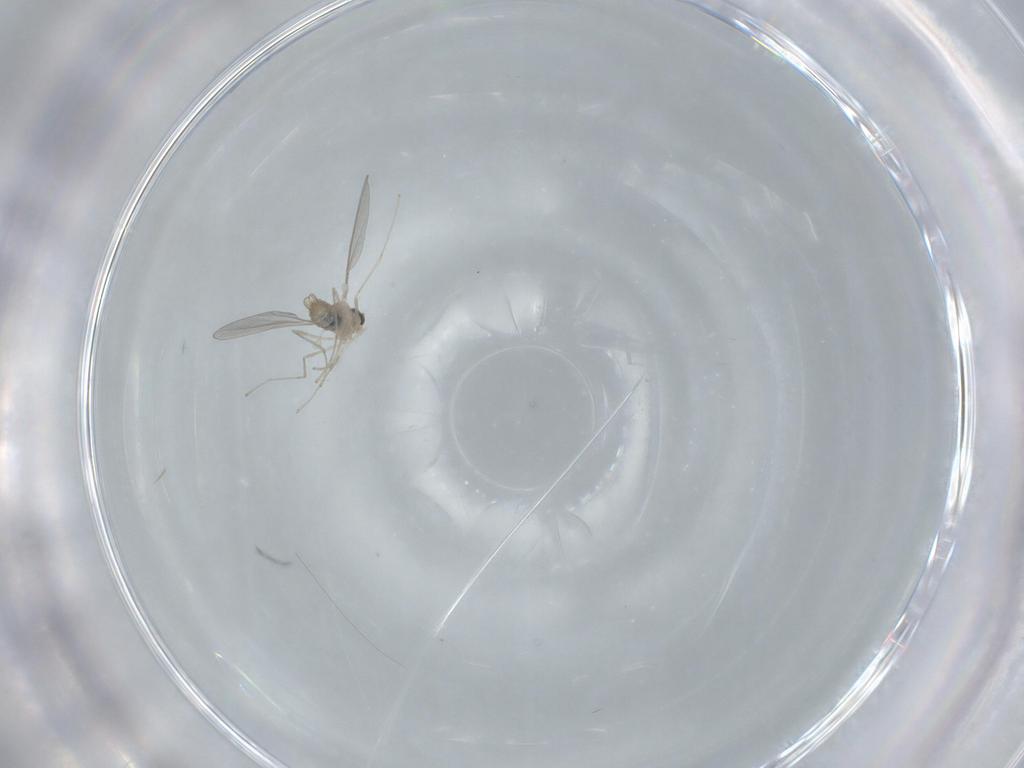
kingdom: Animalia
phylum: Arthropoda
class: Insecta
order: Diptera
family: Cecidomyiidae
